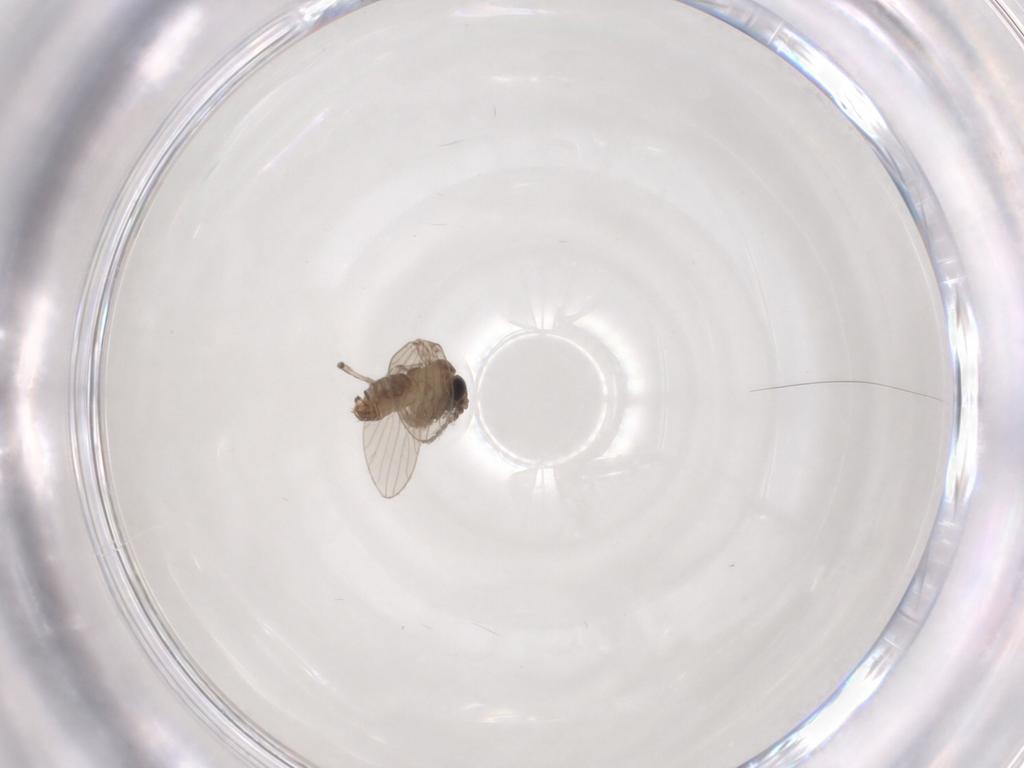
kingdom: Animalia
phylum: Arthropoda
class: Insecta
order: Diptera
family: Psychodidae
